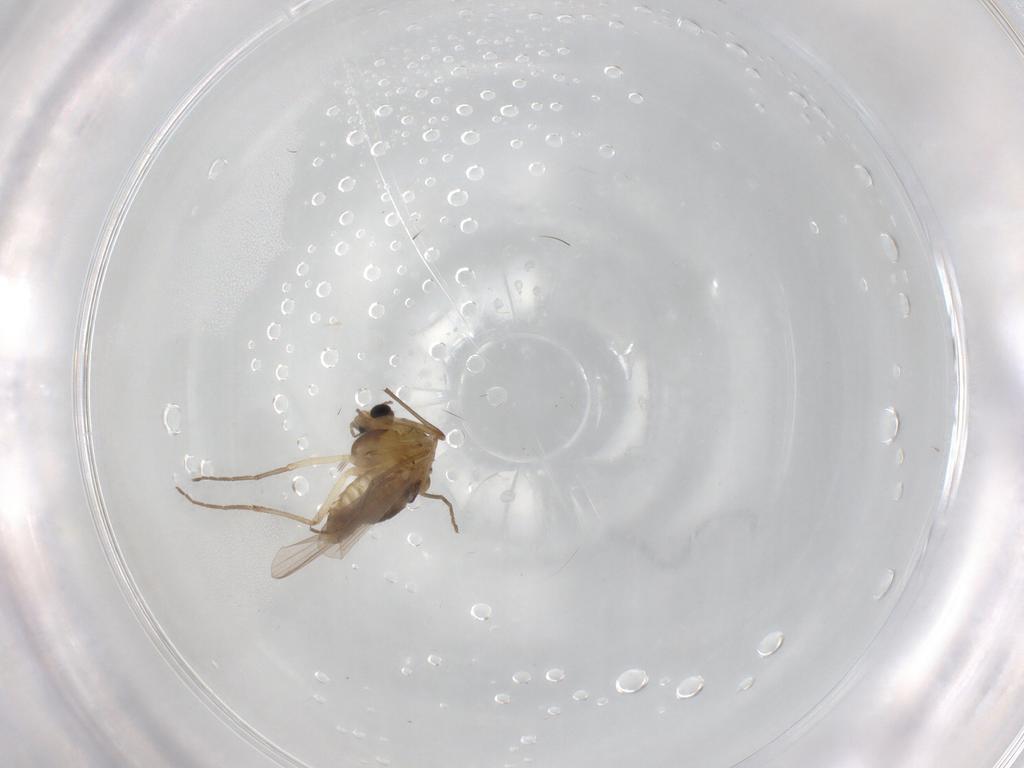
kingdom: Animalia
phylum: Arthropoda
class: Insecta
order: Diptera
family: Chironomidae
